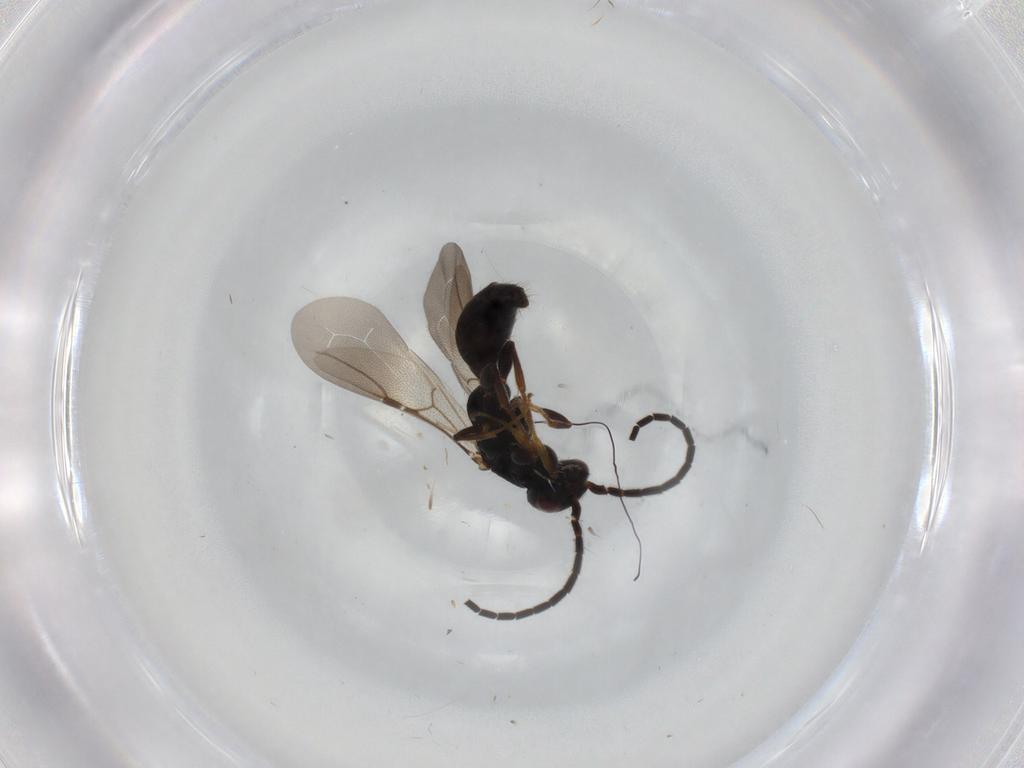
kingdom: Animalia
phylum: Arthropoda
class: Insecta
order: Hymenoptera
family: Bethylidae
